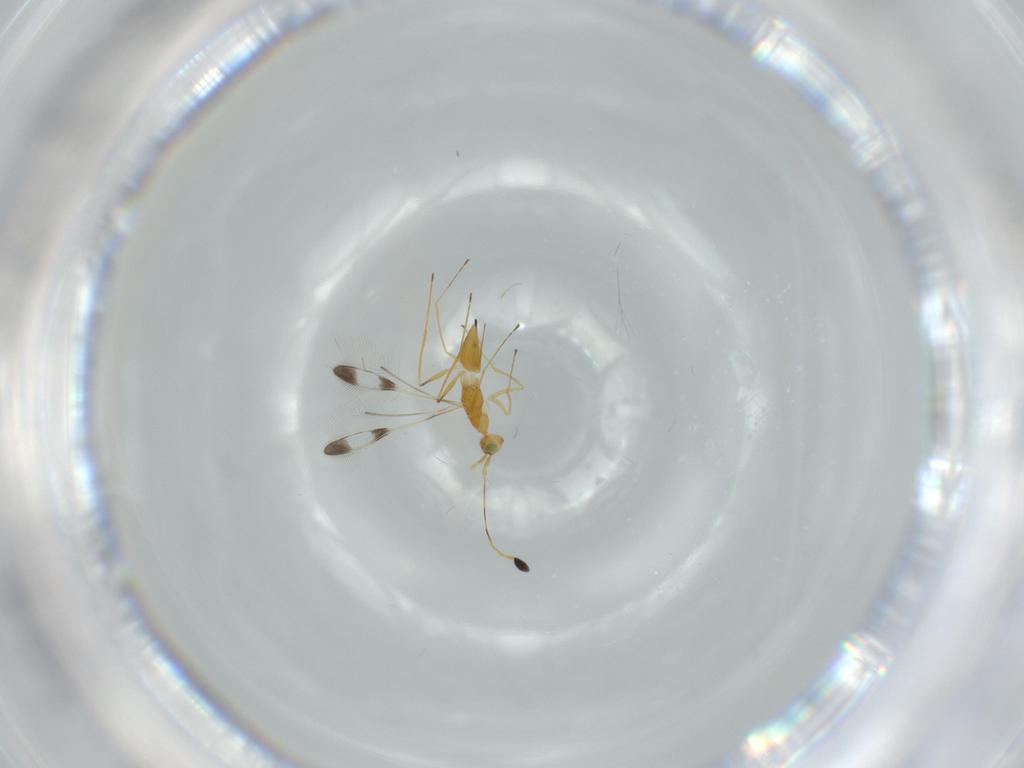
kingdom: Animalia
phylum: Arthropoda
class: Insecta
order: Hymenoptera
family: Mymaridae
